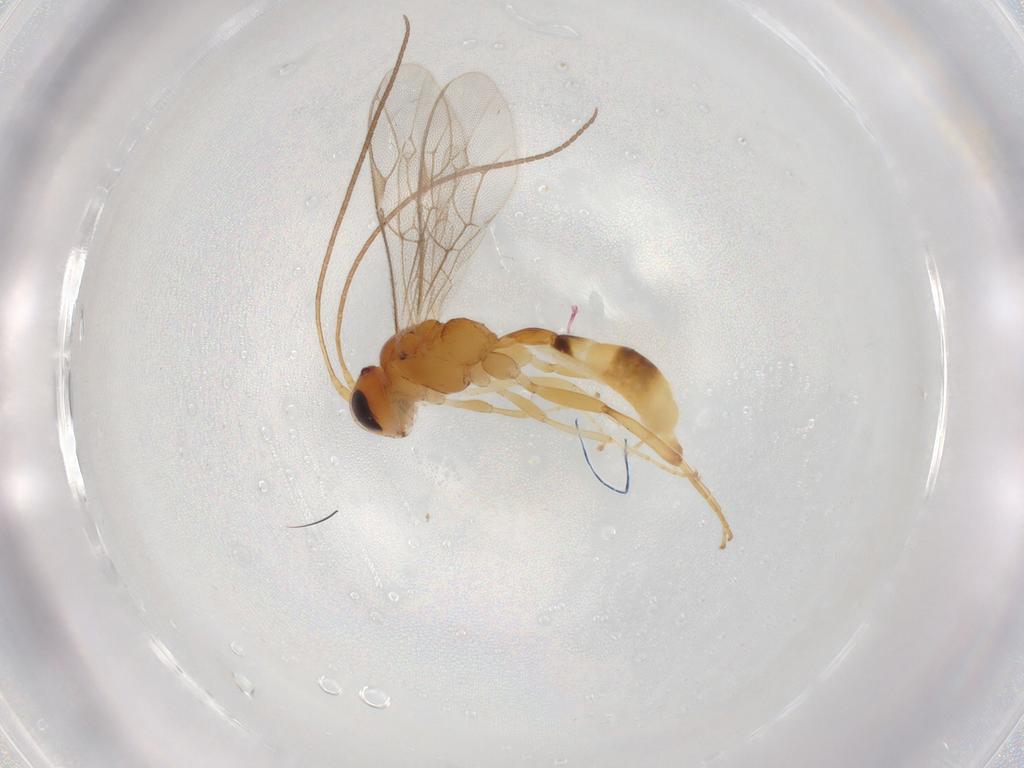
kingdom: Animalia
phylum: Arthropoda
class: Insecta
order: Hymenoptera
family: Ichneumonidae
